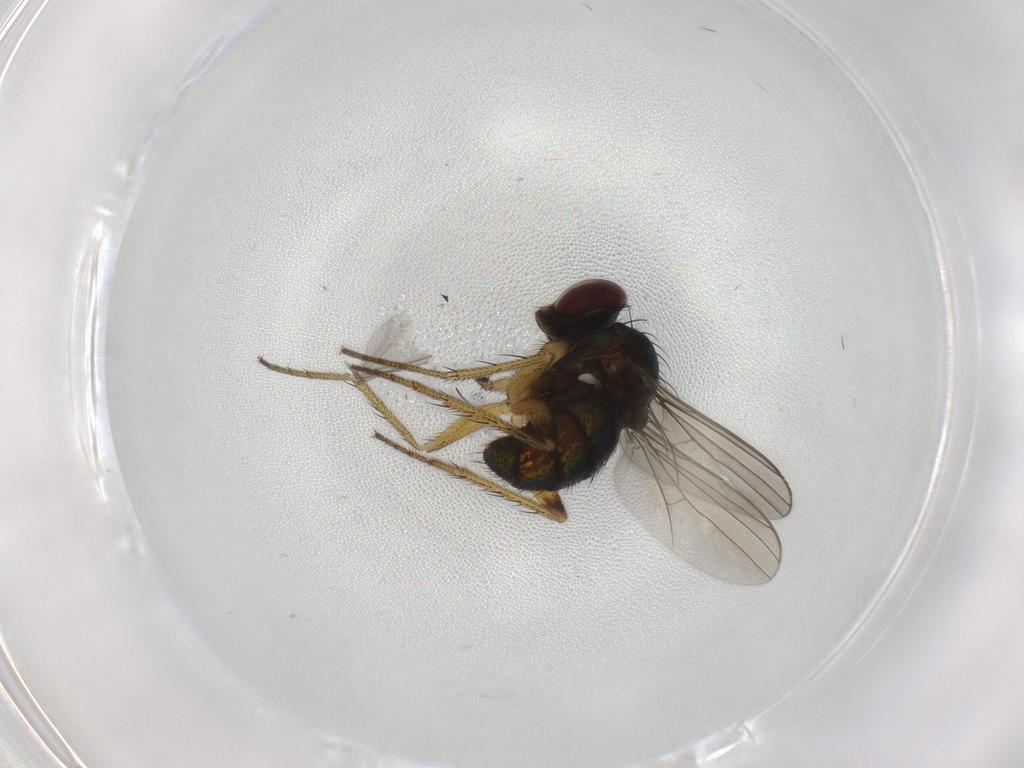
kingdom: Animalia
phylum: Arthropoda
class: Insecta
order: Diptera
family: Dolichopodidae
